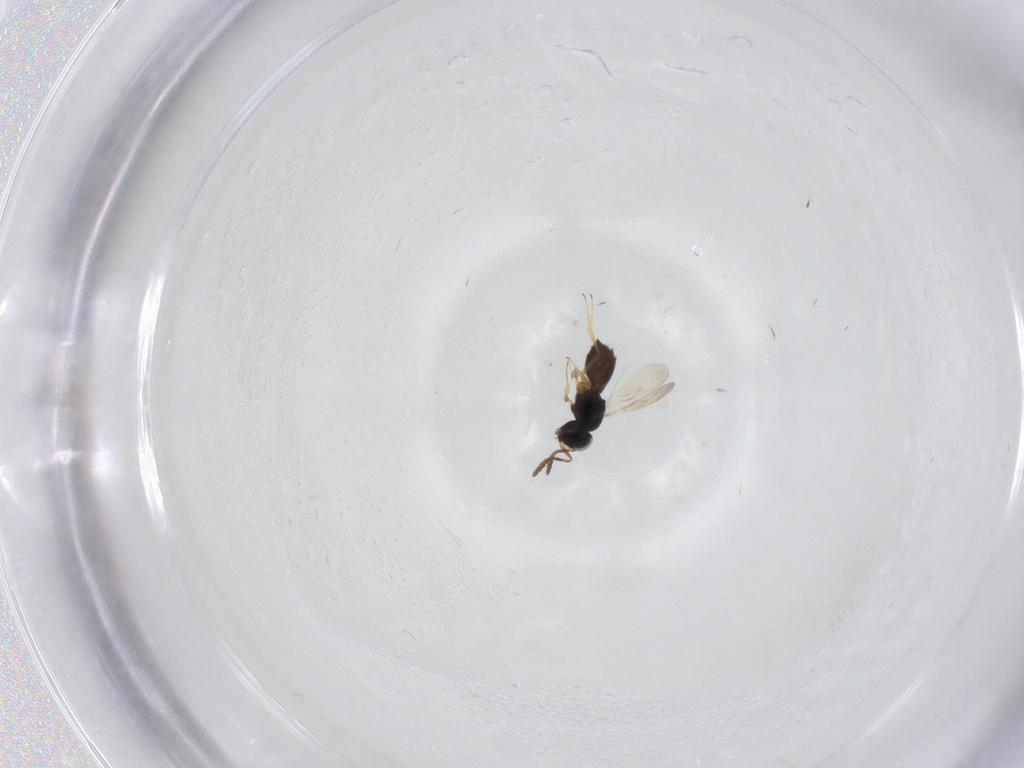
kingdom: Animalia
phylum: Arthropoda
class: Insecta
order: Hymenoptera
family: Scelionidae
